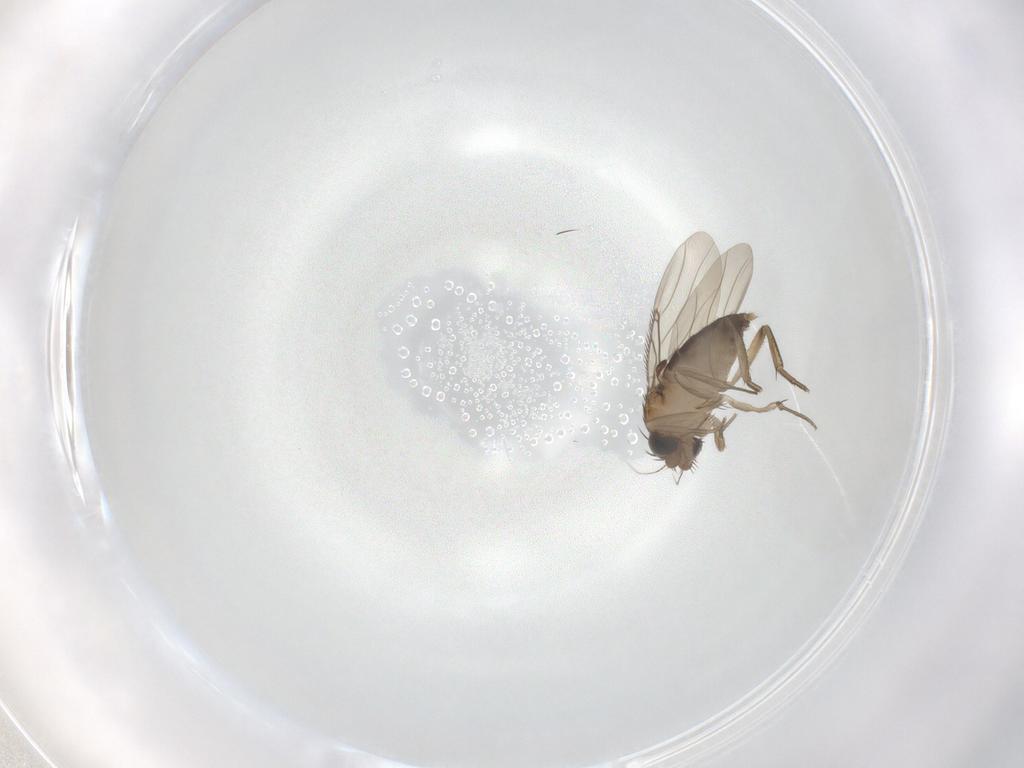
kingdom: Animalia
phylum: Arthropoda
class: Insecta
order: Diptera
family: Phoridae
